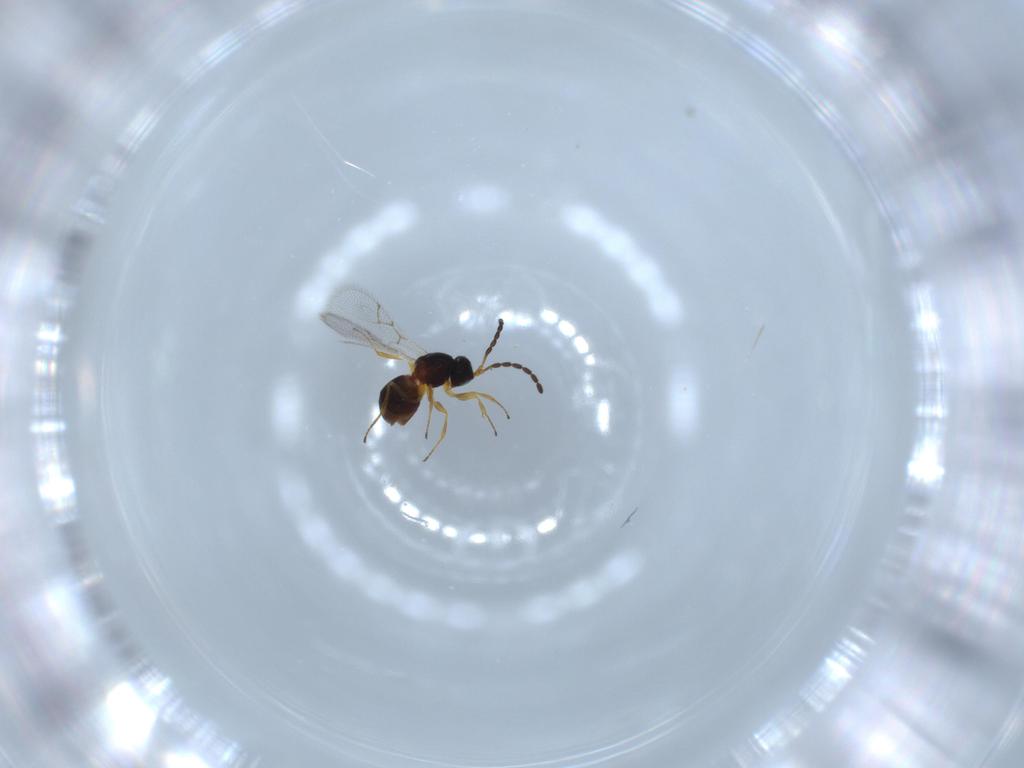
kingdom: Animalia
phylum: Arthropoda
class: Insecta
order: Hymenoptera
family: Figitidae
